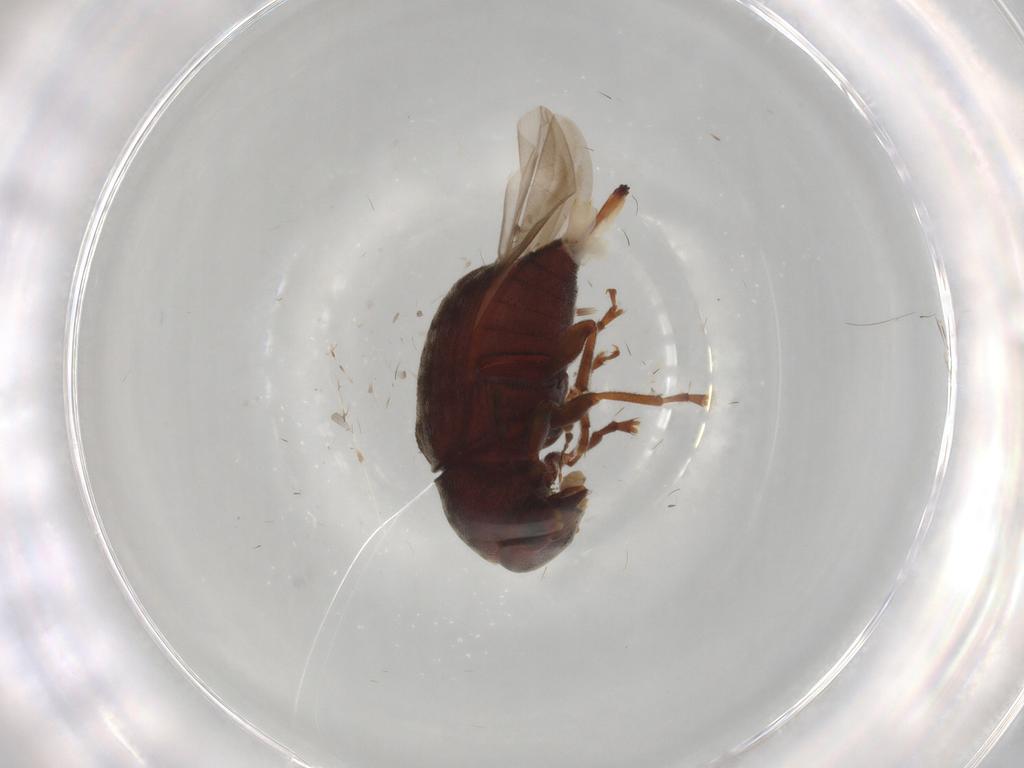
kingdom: Animalia
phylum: Arthropoda
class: Insecta
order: Coleoptera
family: Anthribidae
